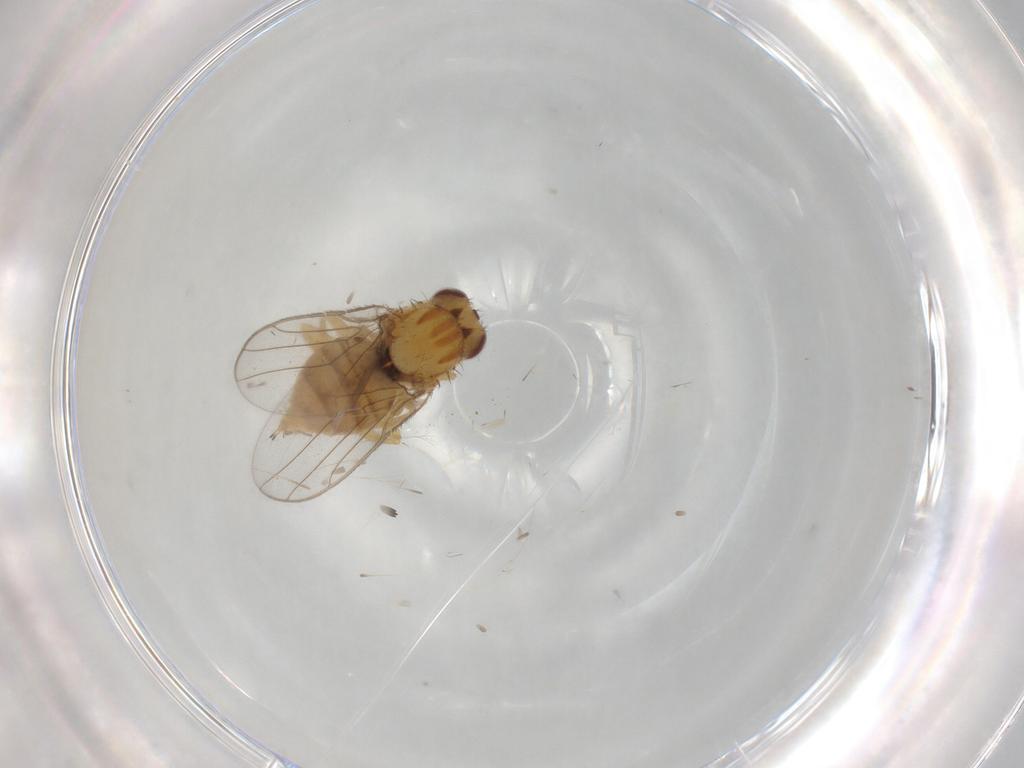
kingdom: Animalia
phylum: Arthropoda
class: Insecta
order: Diptera
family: Chloropidae
